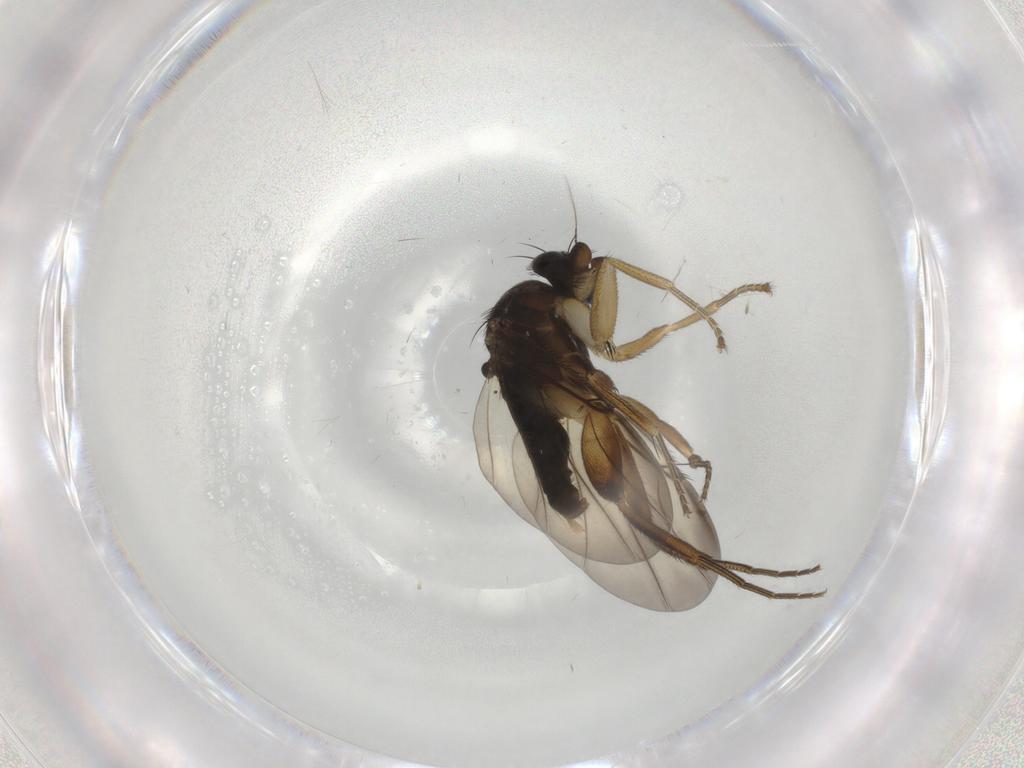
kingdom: Animalia
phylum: Arthropoda
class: Insecta
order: Diptera
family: Phoridae
